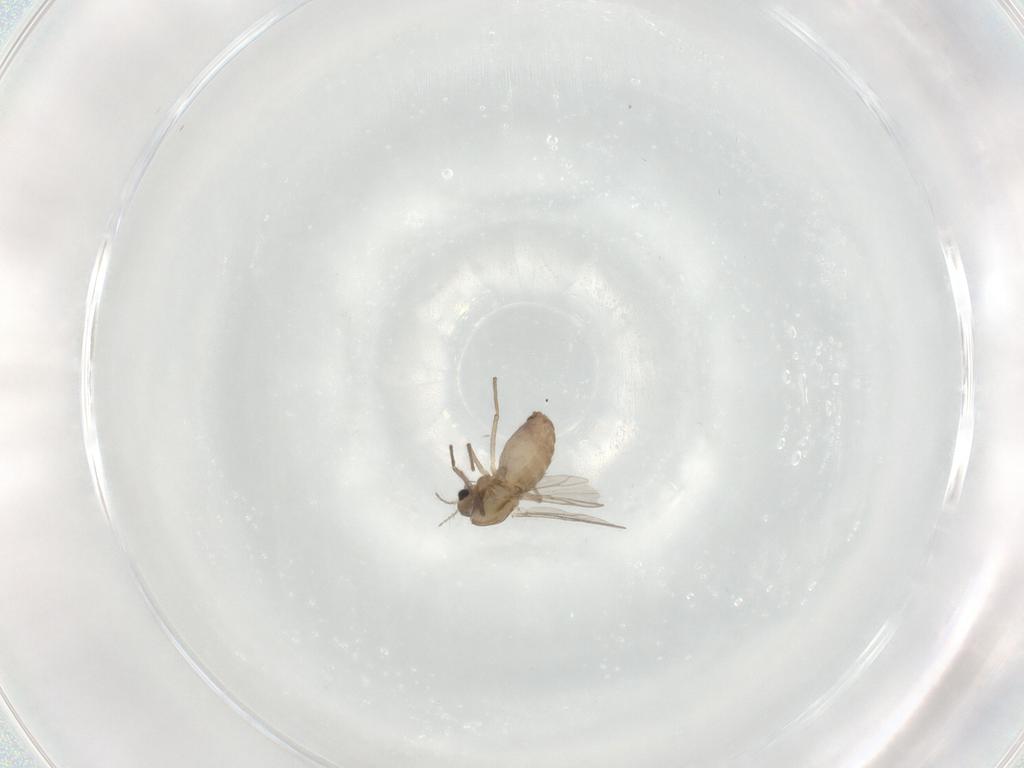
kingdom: Animalia
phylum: Arthropoda
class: Insecta
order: Diptera
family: Chironomidae
